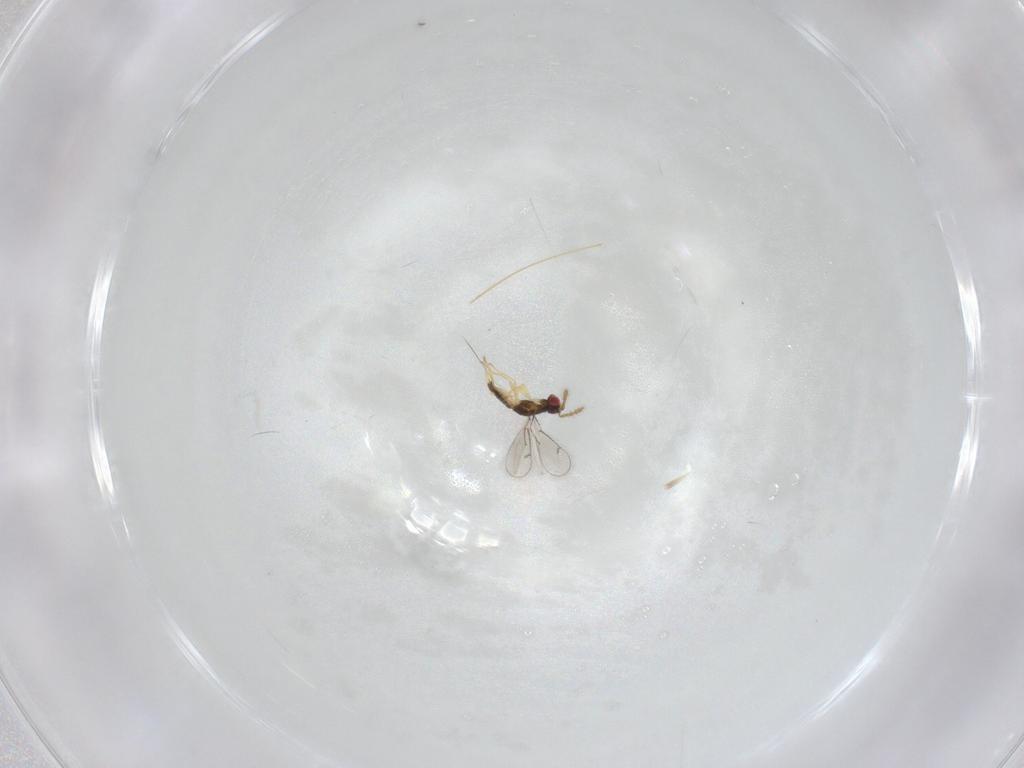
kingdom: Animalia
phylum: Arthropoda
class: Insecta
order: Hymenoptera
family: Eulophidae
